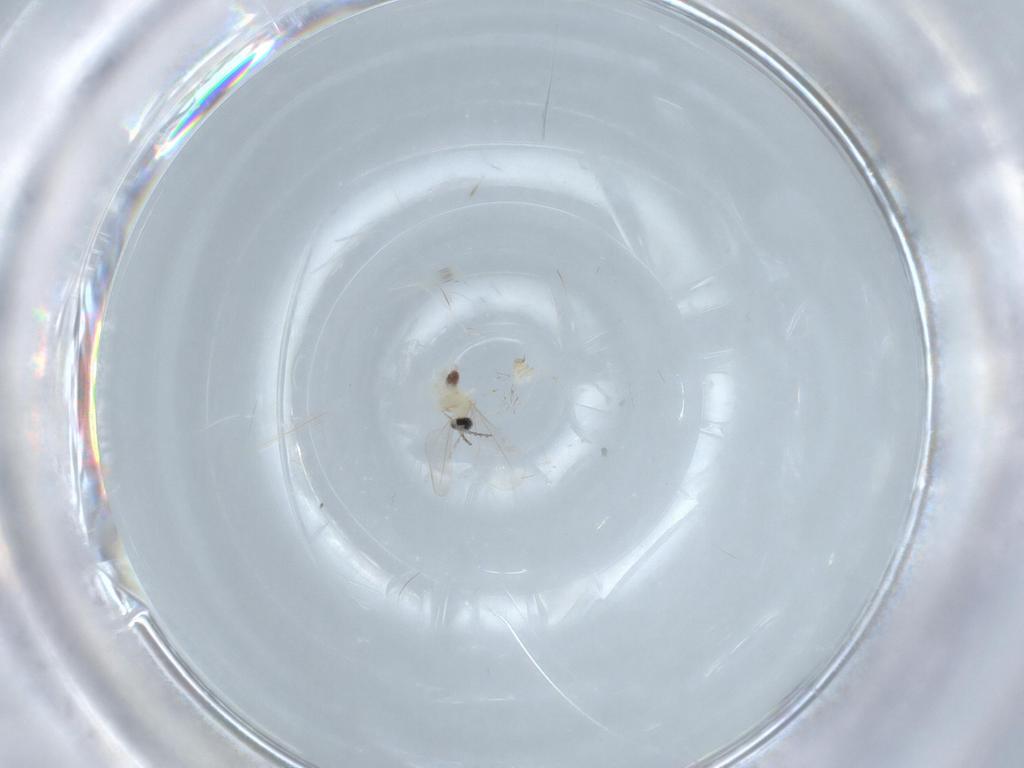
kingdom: Animalia
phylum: Arthropoda
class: Insecta
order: Diptera
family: Cecidomyiidae
